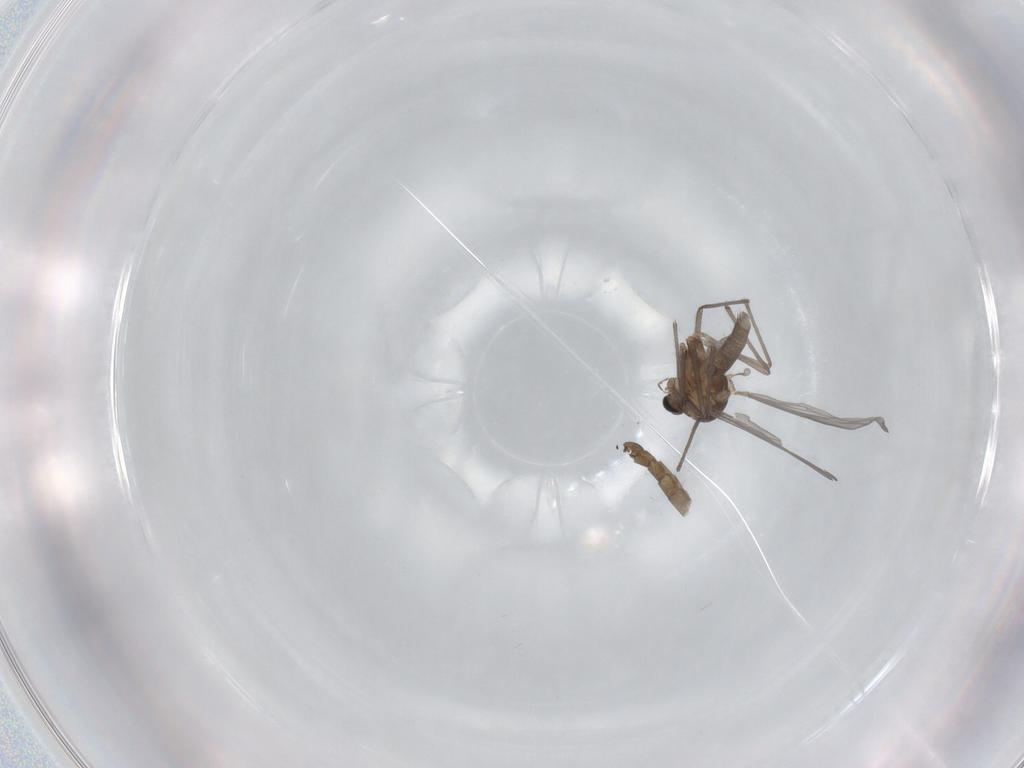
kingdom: Animalia
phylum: Arthropoda
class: Insecta
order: Diptera
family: Chironomidae
